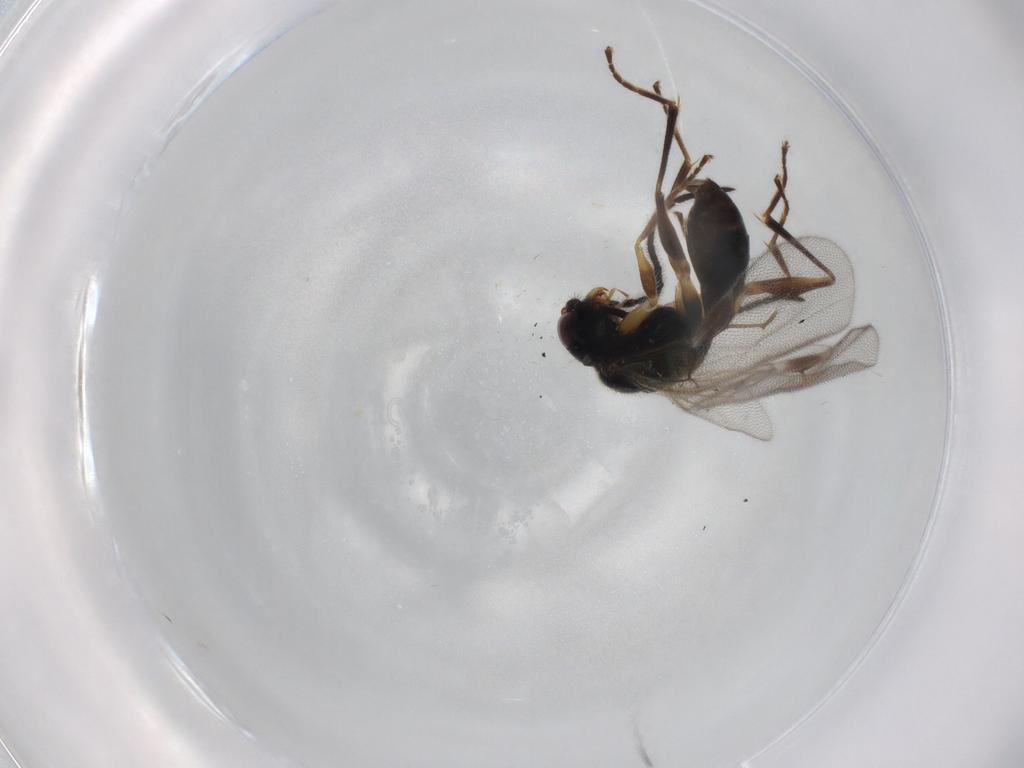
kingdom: Animalia
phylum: Arthropoda
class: Insecta
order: Hymenoptera
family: Dryinidae
